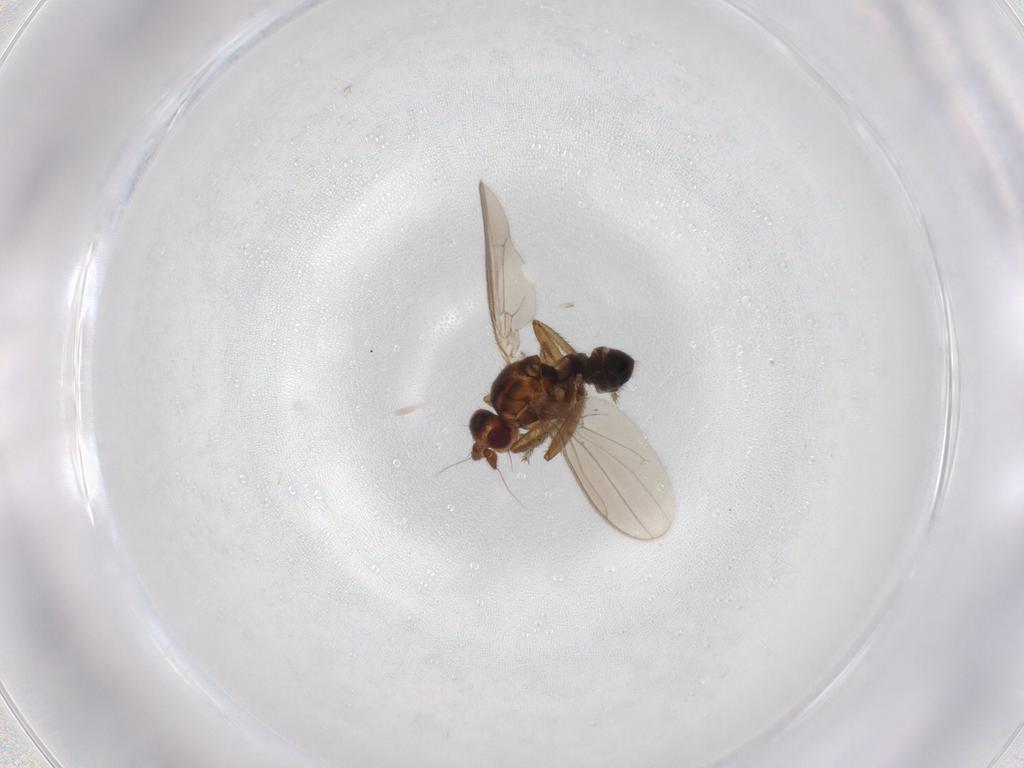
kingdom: Animalia
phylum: Arthropoda
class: Insecta
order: Diptera
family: Sphaeroceridae
